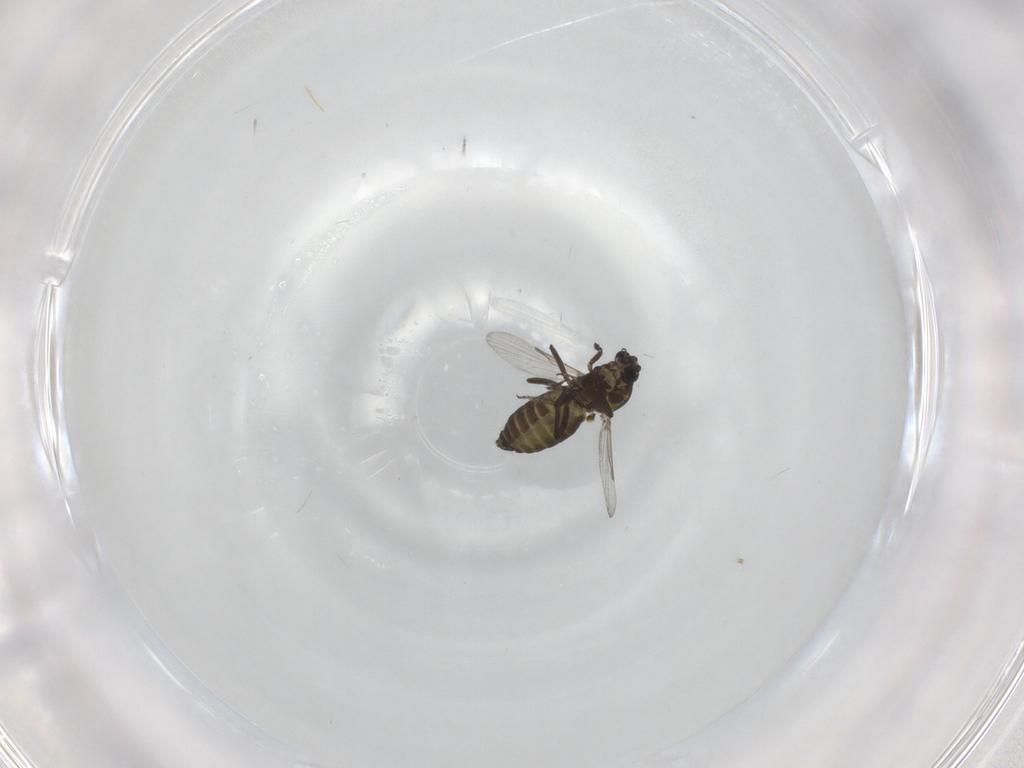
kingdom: Animalia
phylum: Arthropoda
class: Insecta
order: Diptera
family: Ceratopogonidae
